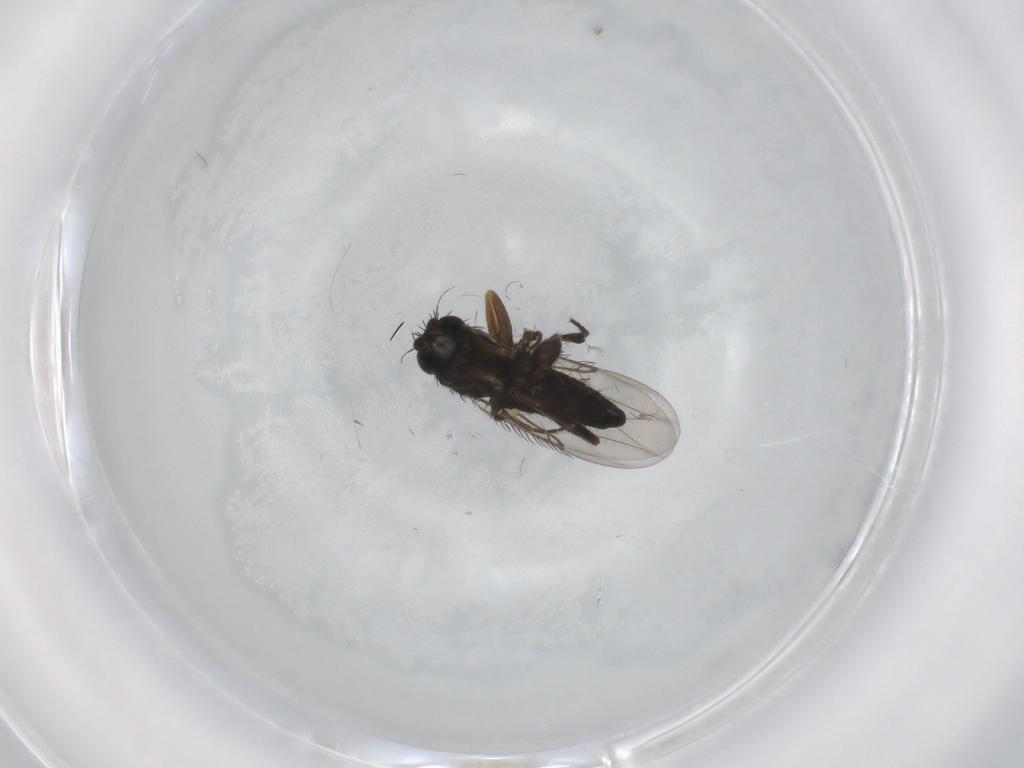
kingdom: Animalia
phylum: Arthropoda
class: Insecta
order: Diptera
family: Phoridae
